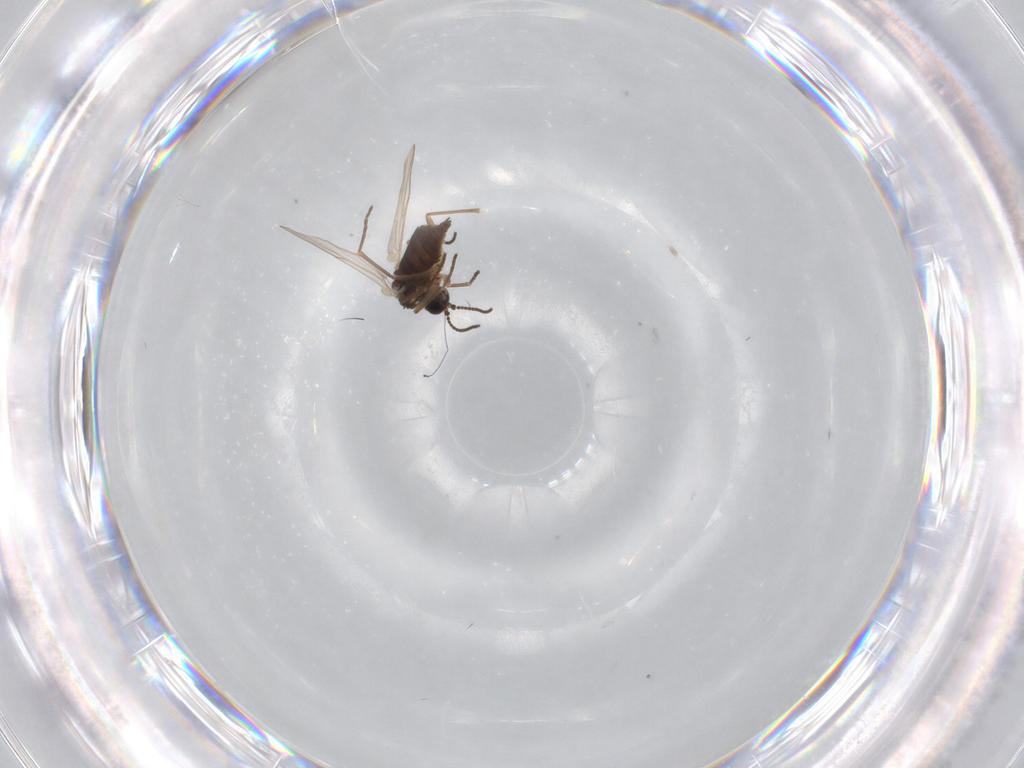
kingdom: Animalia
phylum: Arthropoda
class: Insecta
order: Diptera
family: Sciaridae
